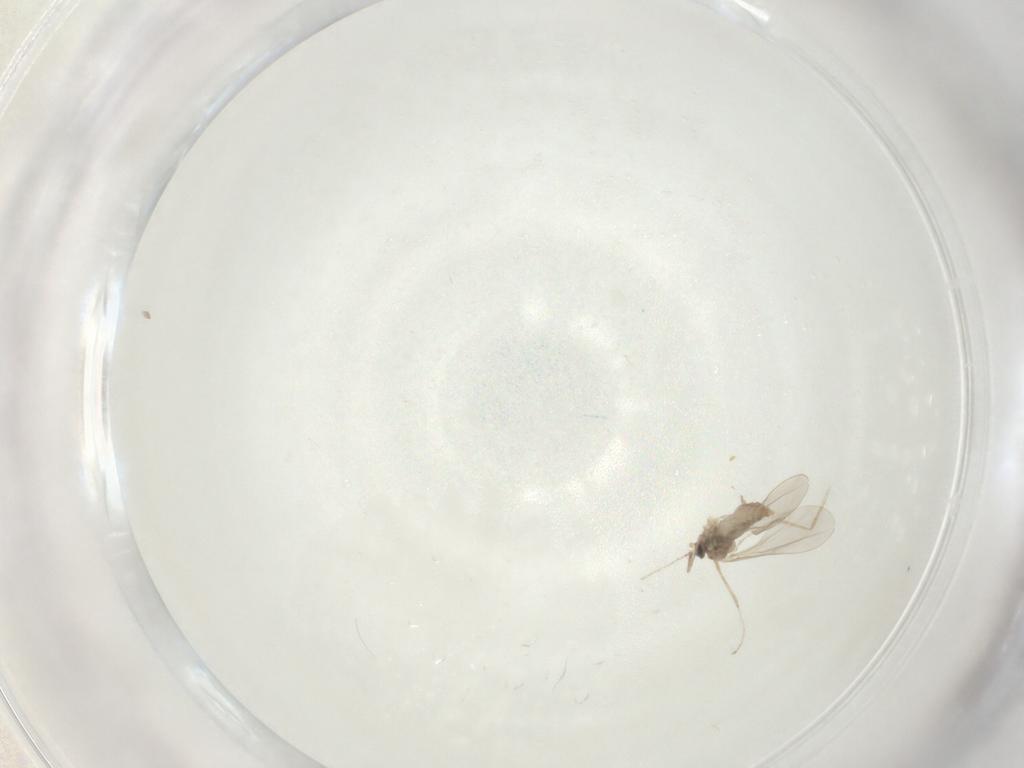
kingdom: Animalia
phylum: Arthropoda
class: Insecta
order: Diptera
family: Cecidomyiidae
